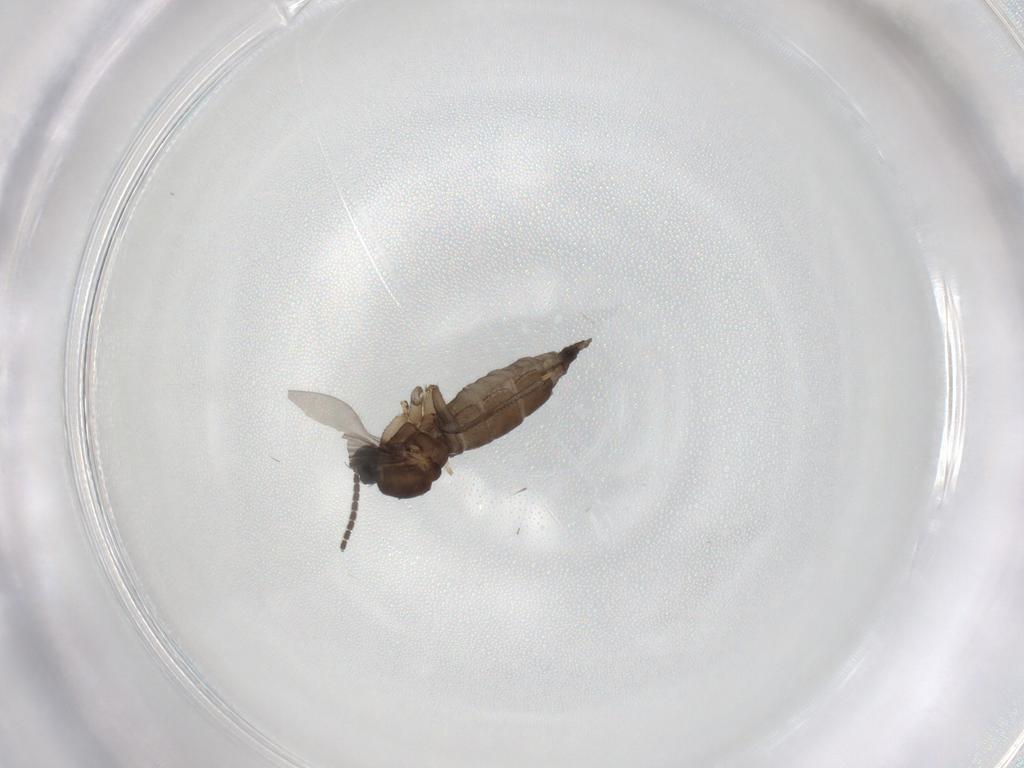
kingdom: Animalia
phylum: Arthropoda
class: Insecta
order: Diptera
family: Sciaridae
